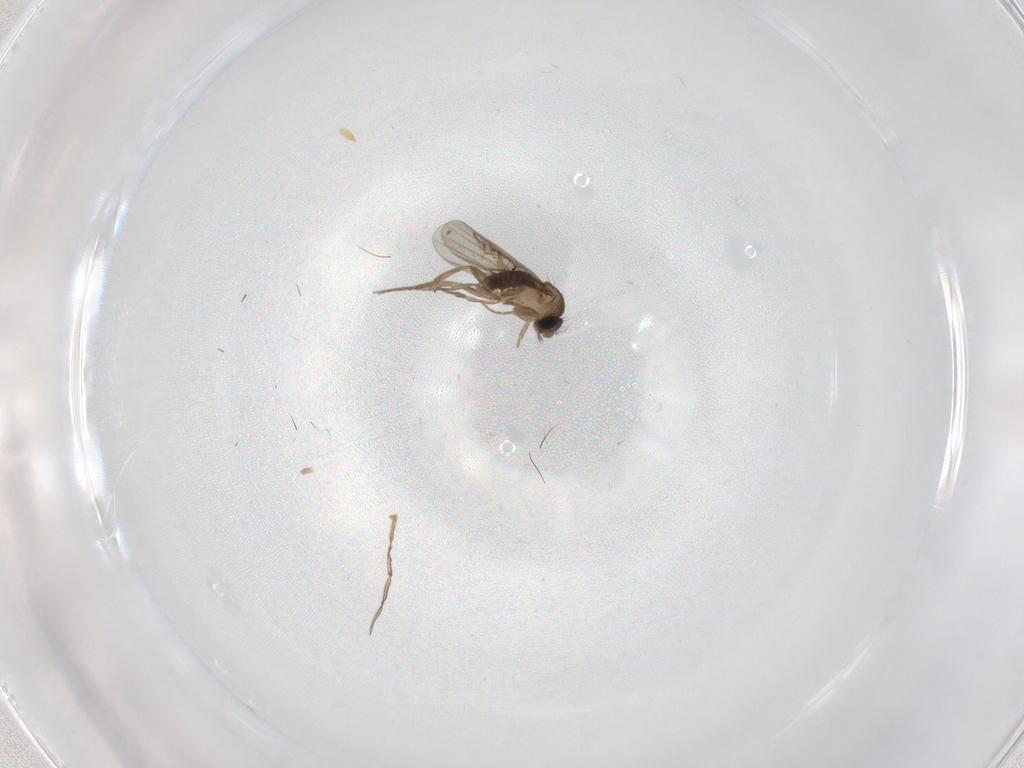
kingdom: Animalia
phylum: Arthropoda
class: Insecta
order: Diptera
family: Phoridae
